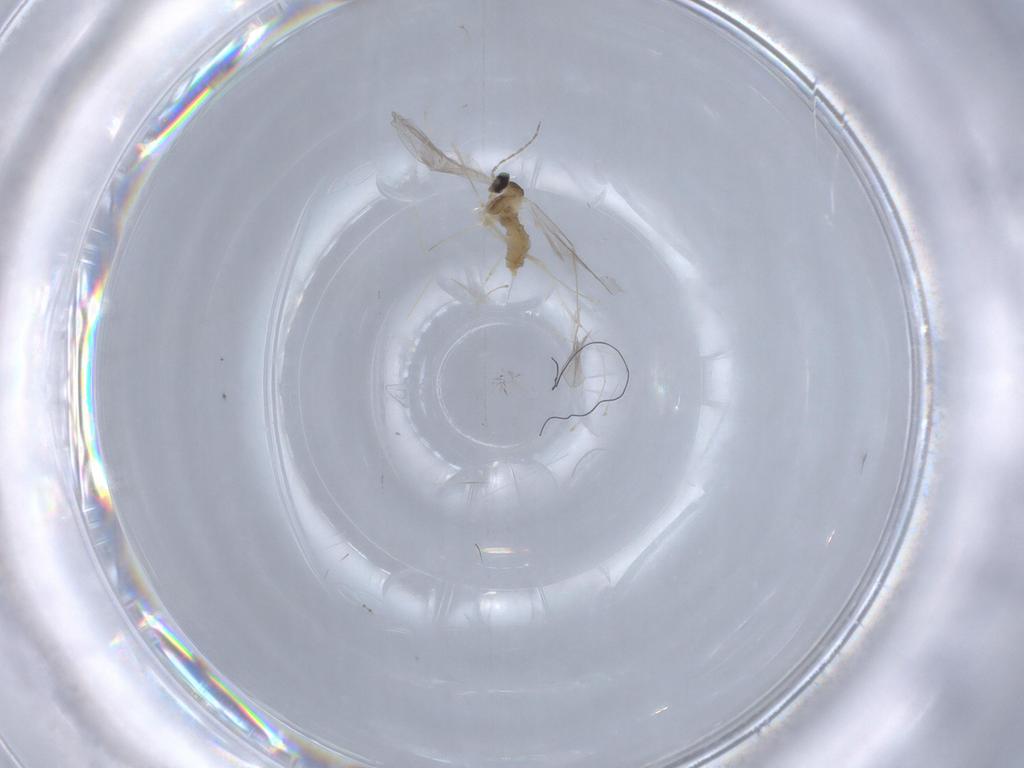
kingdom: Animalia
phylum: Arthropoda
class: Insecta
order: Diptera
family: Cecidomyiidae
